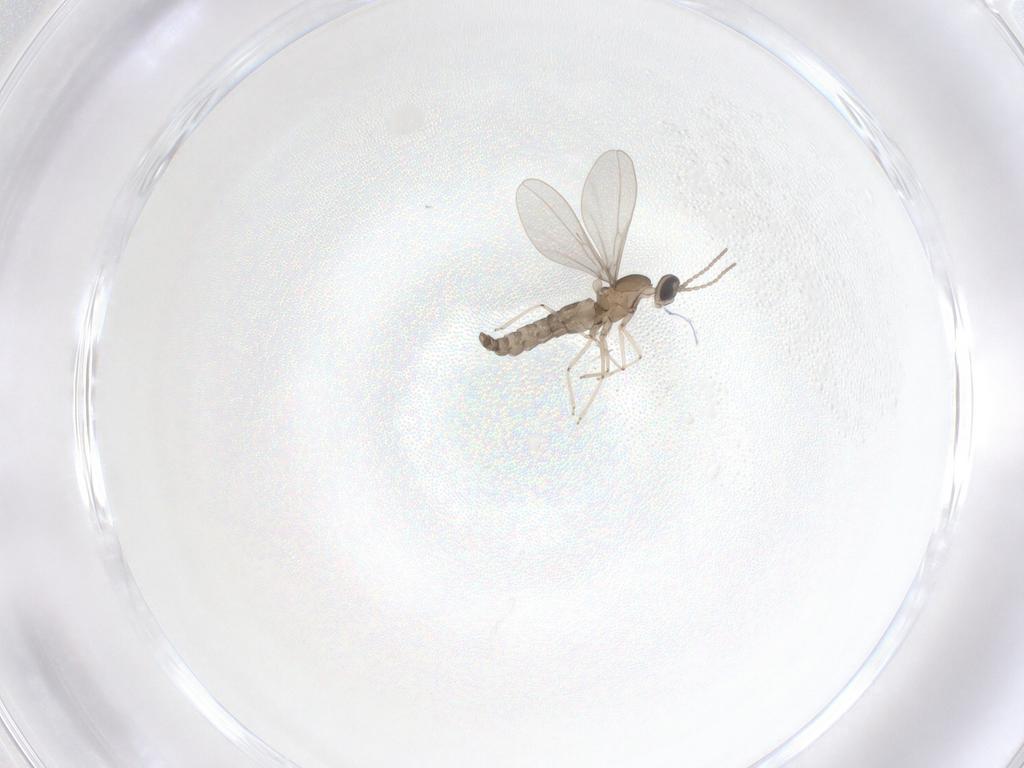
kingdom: Animalia
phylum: Arthropoda
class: Insecta
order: Diptera
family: Cecidomyiidae
